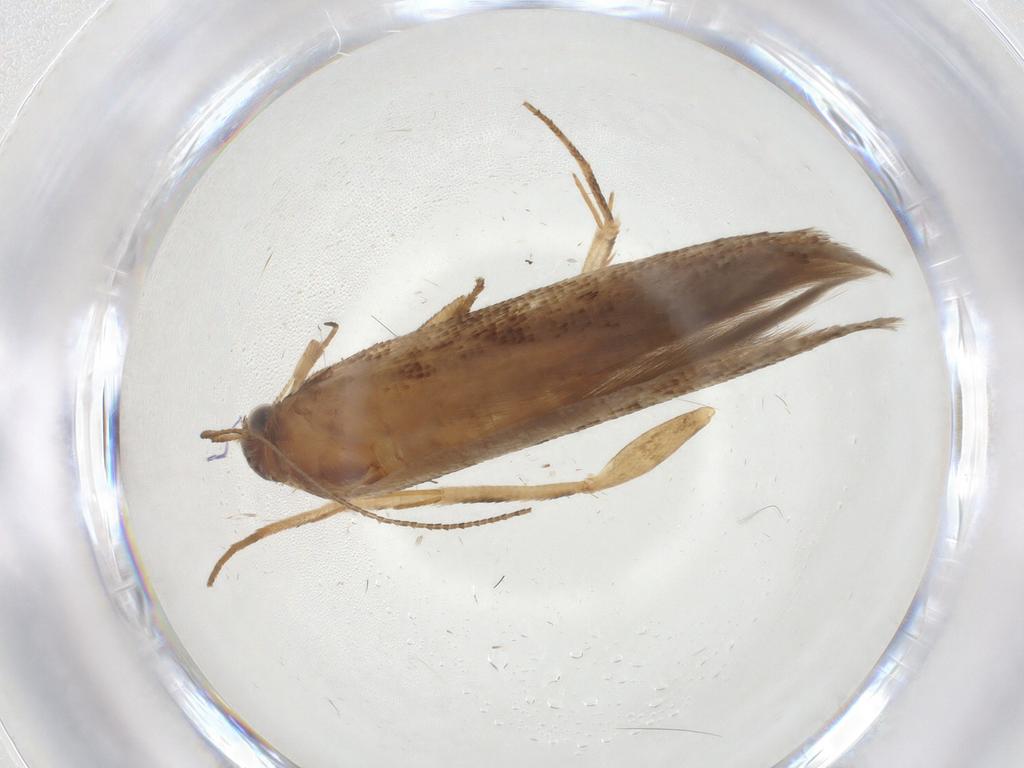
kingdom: Animalia
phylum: Arthropoda
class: Insecta
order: Lepidoptera
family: Gelechiidae
